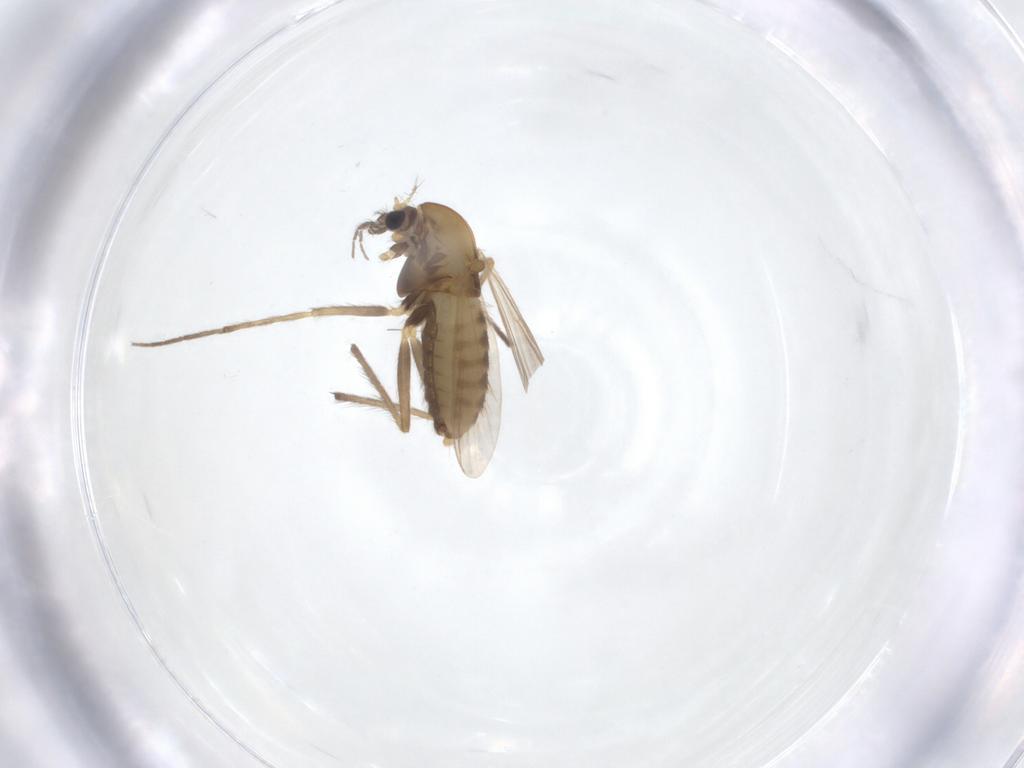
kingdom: Animalia
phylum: Arthropoda
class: Insecta
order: Diptera
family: Chironomidae
